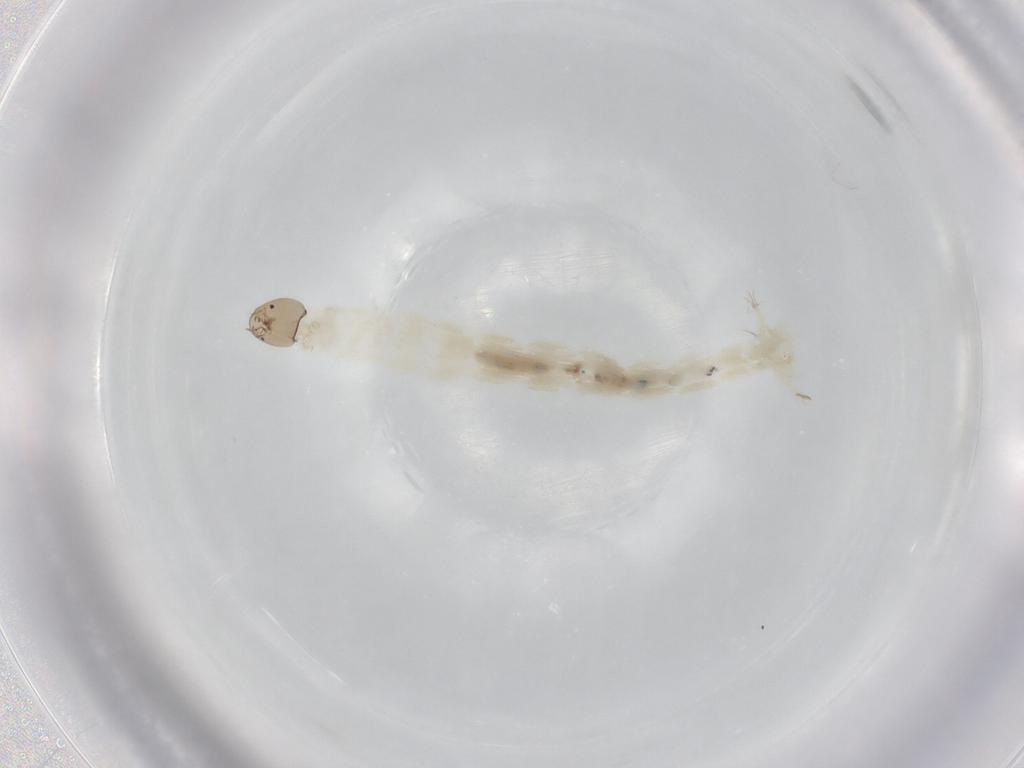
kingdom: Animalia
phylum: Arthropoda
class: Insecta
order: Diptera
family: Chironomidae
